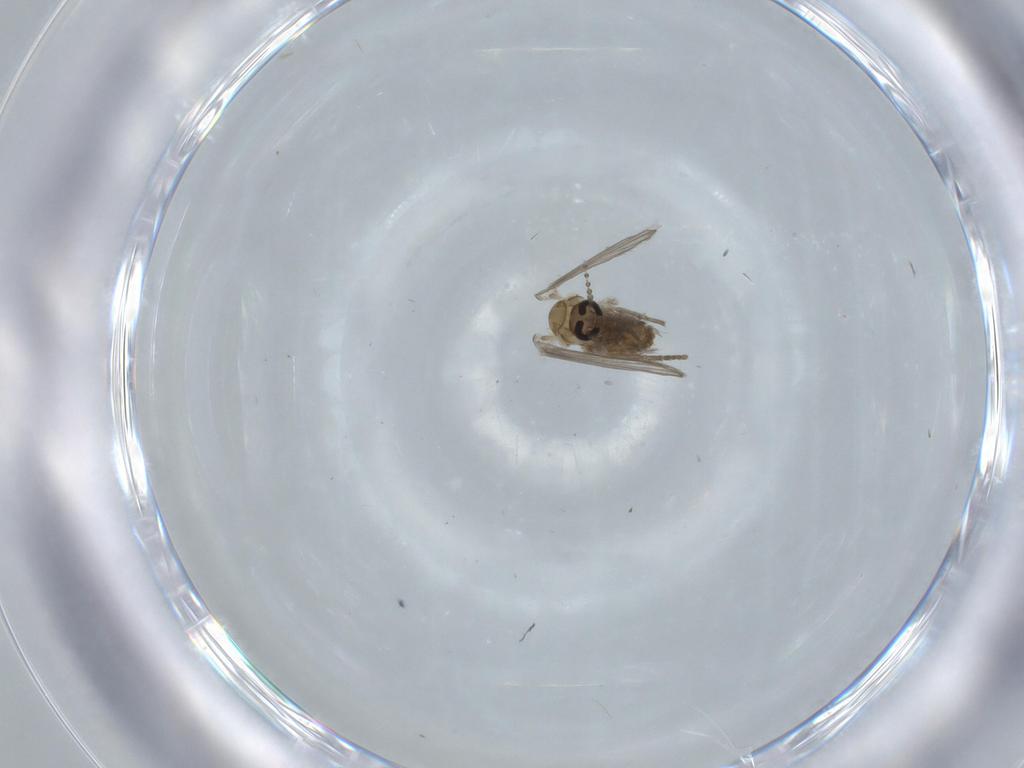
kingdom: Animalia
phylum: Arthropoda
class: Insecta
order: Diptera
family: Psychodidae
